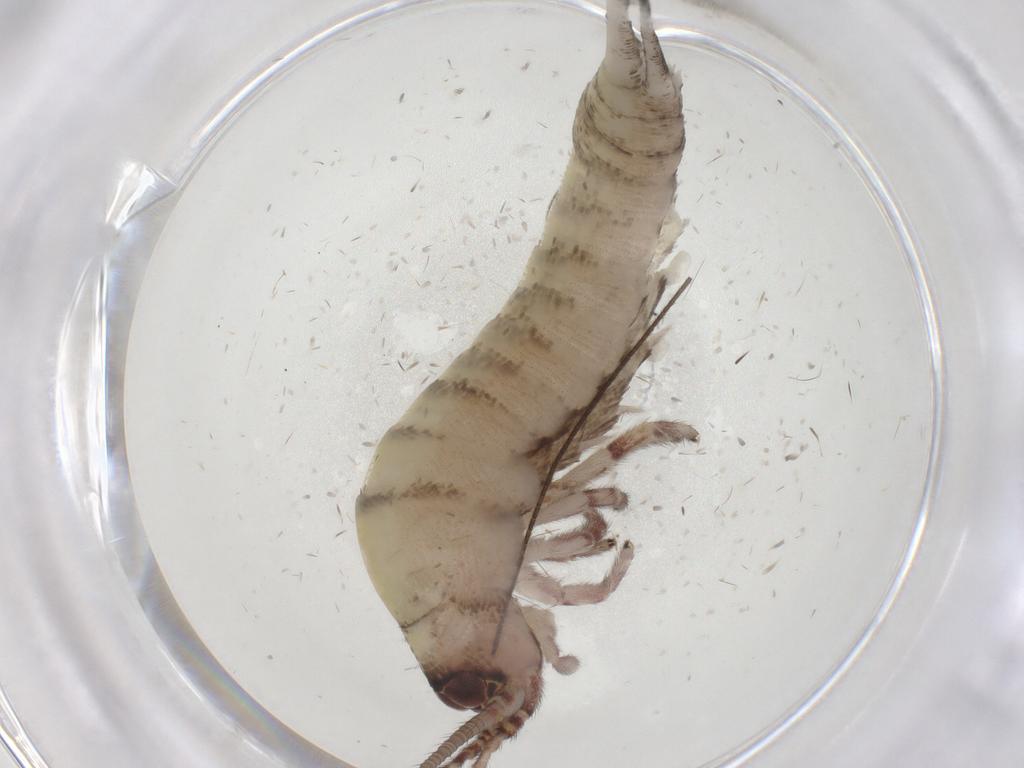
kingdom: Animalia
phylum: Arthropoda
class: Insecta
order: Archaeognatha
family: Machilidae
